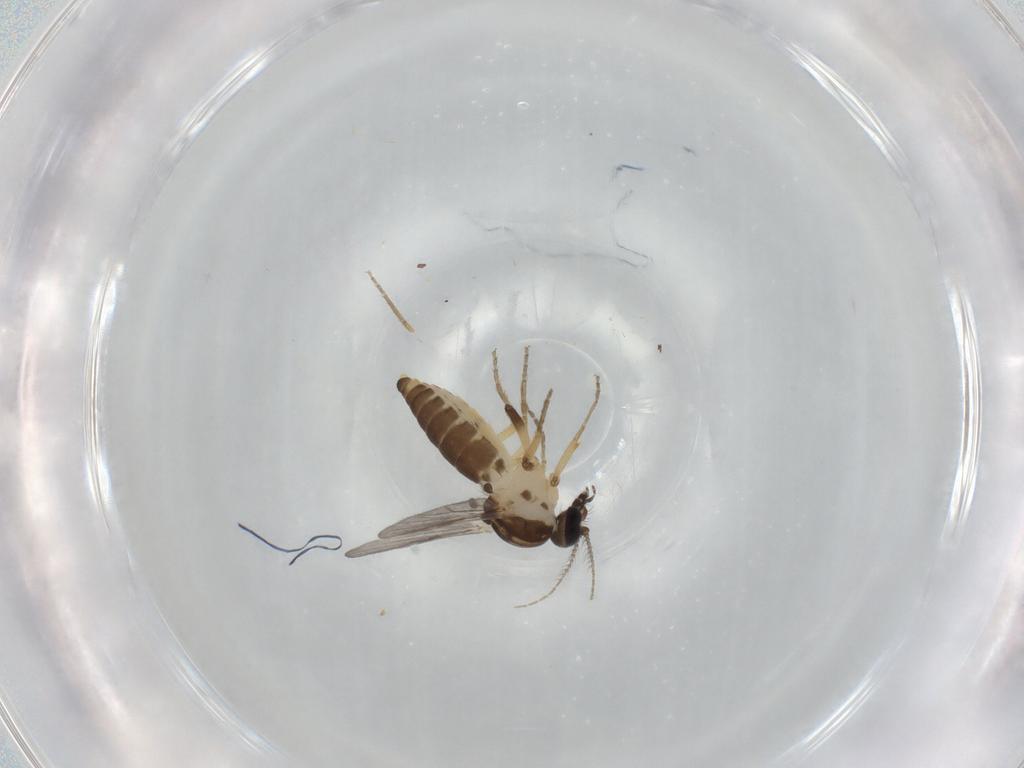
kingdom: Animalia
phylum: Arthropoda
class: Insecta
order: Diptera
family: Ceratopogonidae
